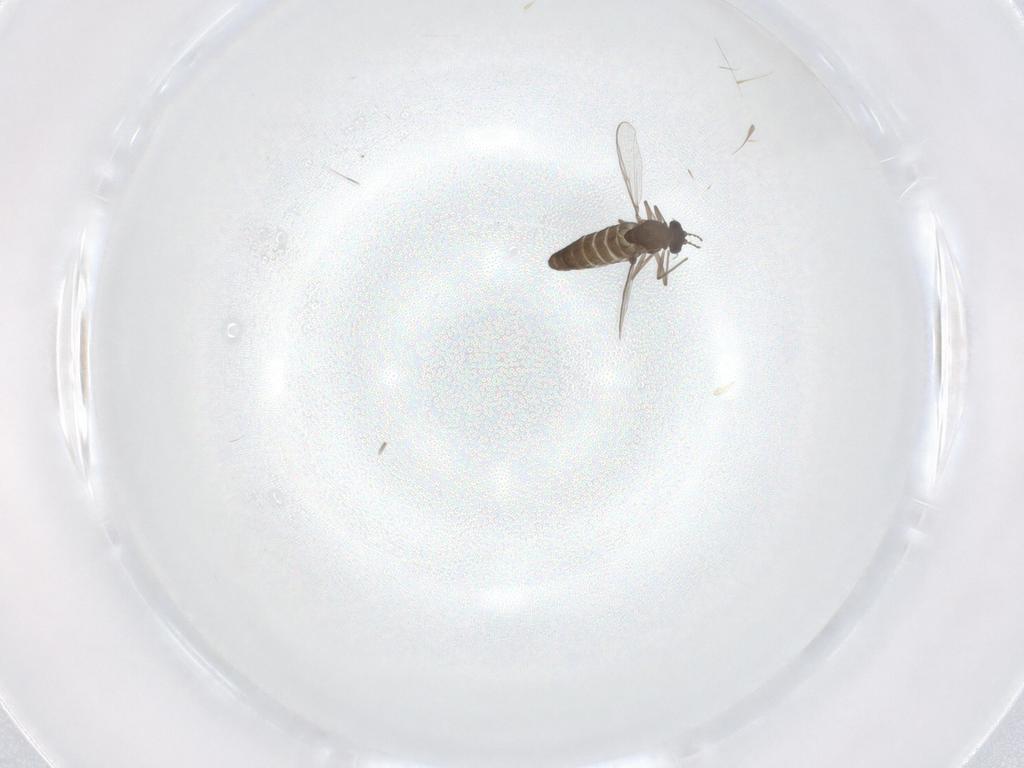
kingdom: Animalia
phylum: Arthropoda
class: Insecta
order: Diptera
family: Chironomidae
